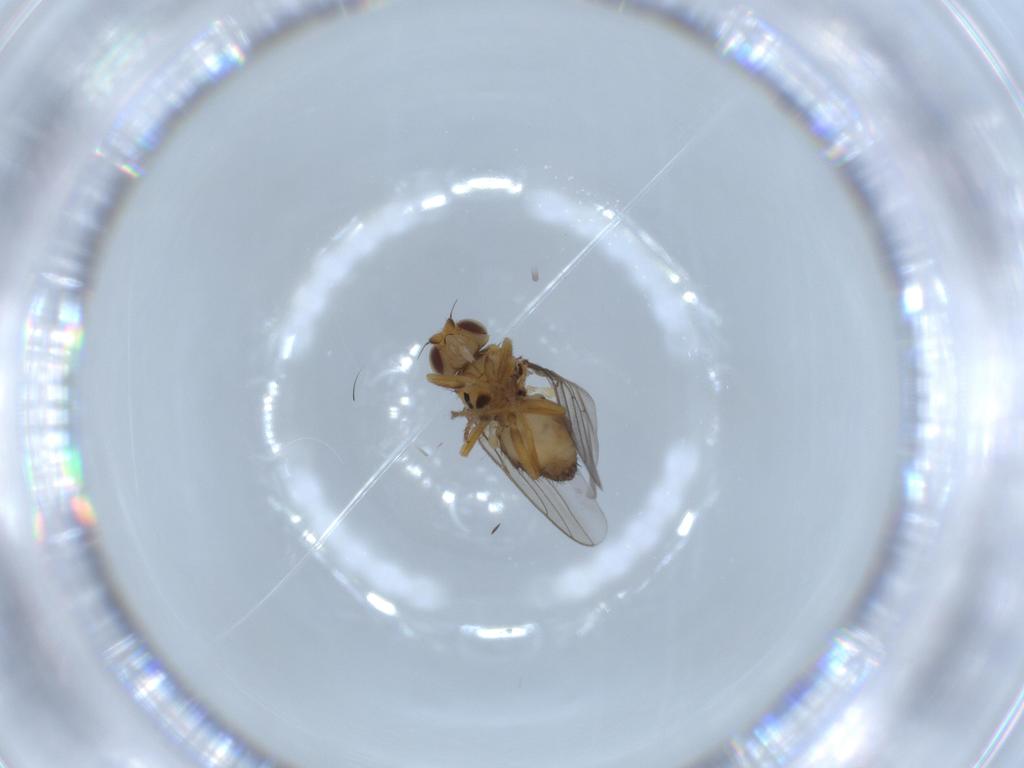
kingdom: Animalia
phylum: Arthropoda
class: Insecta
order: Diptera
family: Chloropidae
